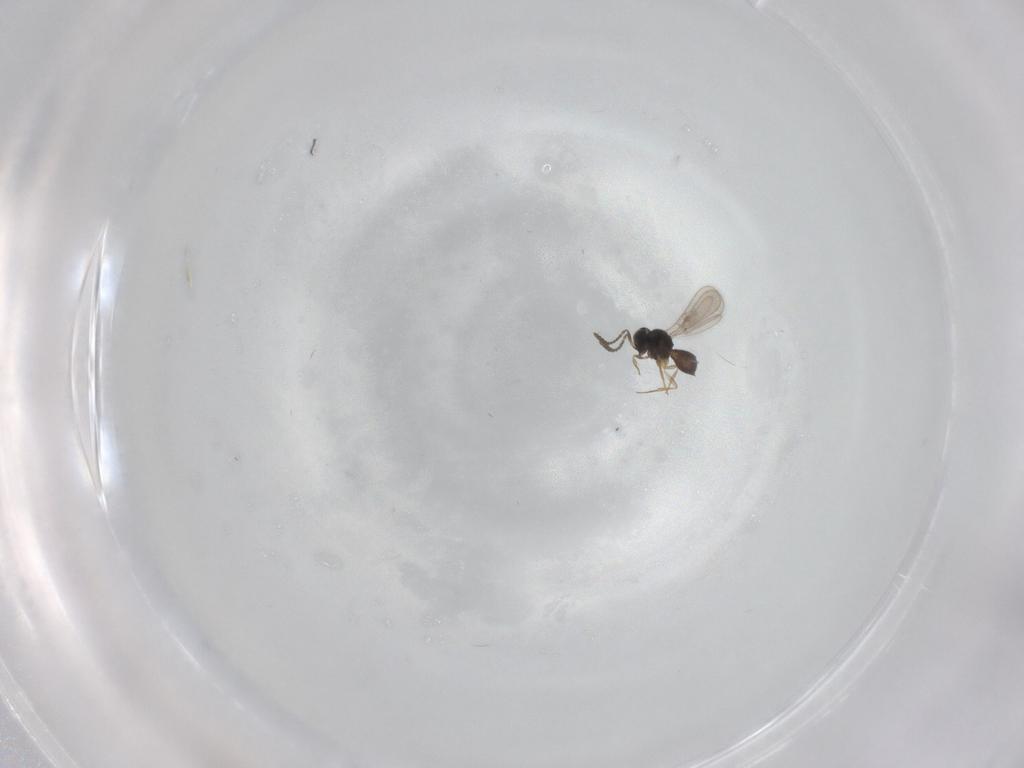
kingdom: Animalia
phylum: Arthropoda
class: Insecta
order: Hymenoptera
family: Scelionidae
